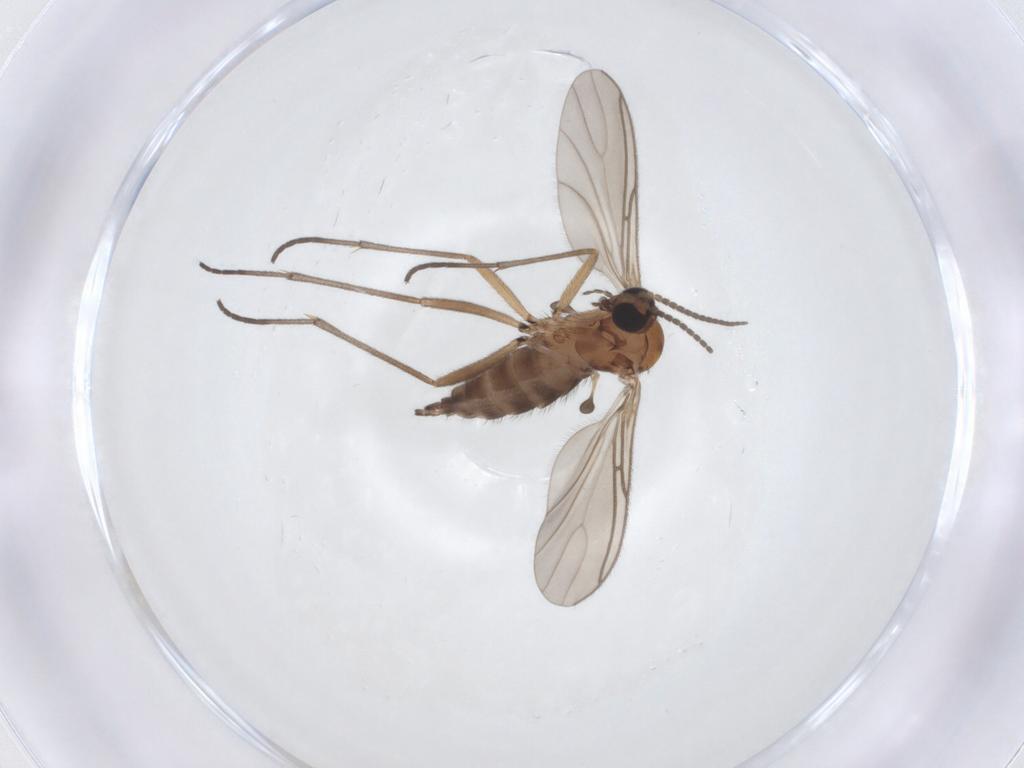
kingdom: Animalia
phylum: Arthropoda
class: Insecta
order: Diptera
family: Sciaridae
